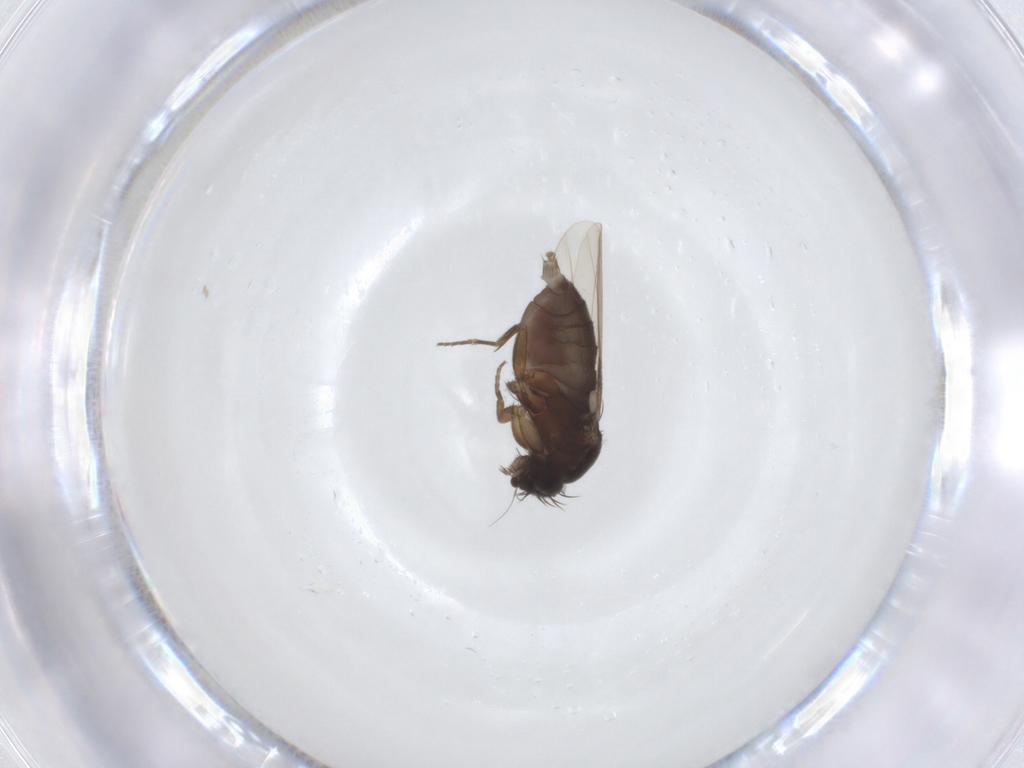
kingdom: Animalia
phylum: Arthropoda
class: Insecta
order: Diptera
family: Phoridae
